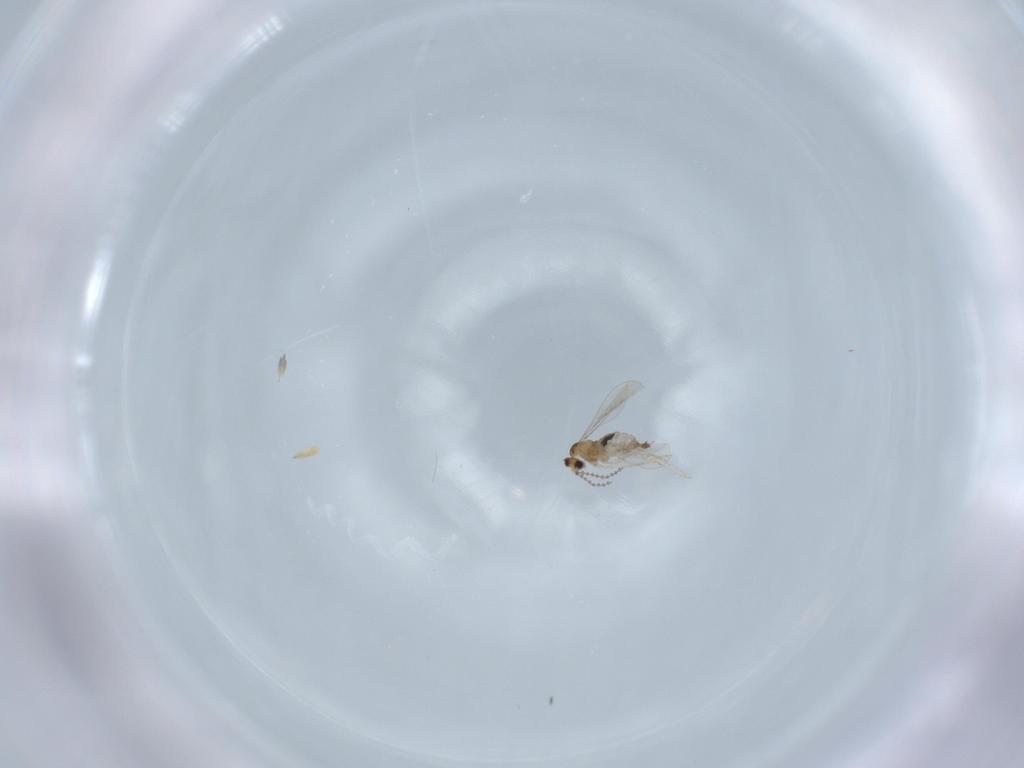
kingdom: Animalia
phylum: Arthropoda
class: Insecta
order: Diptera
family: Cecidomyiidae
